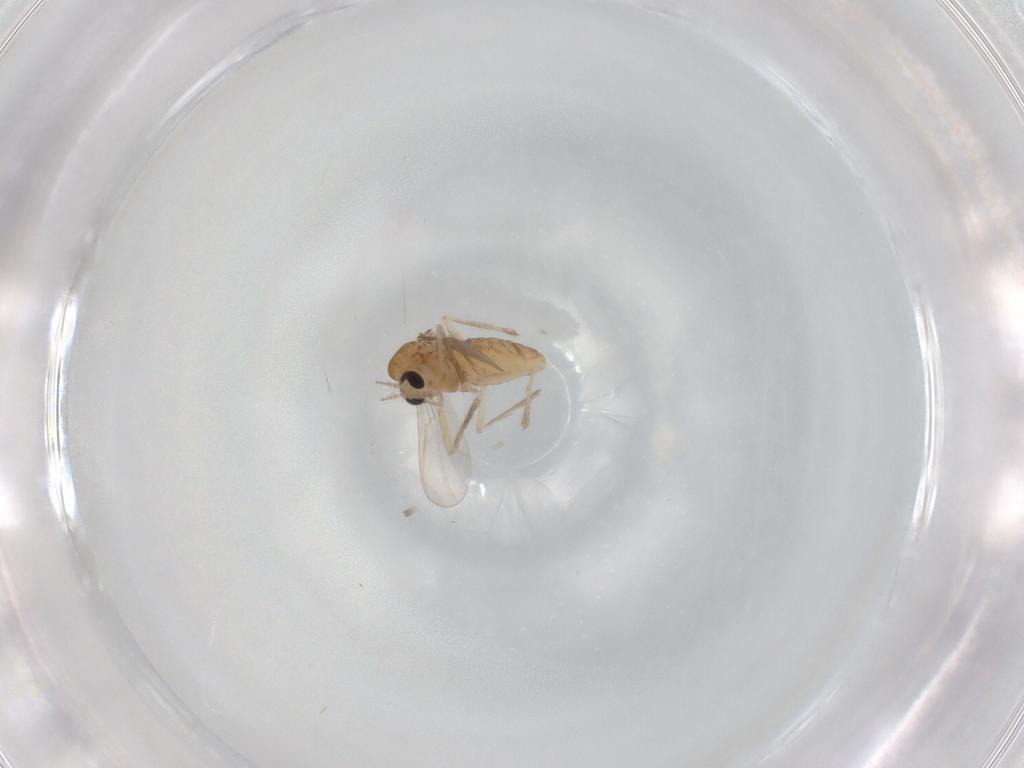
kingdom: Animalia
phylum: Arthropoda
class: Insecta
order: Diptera
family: Chironomidae
